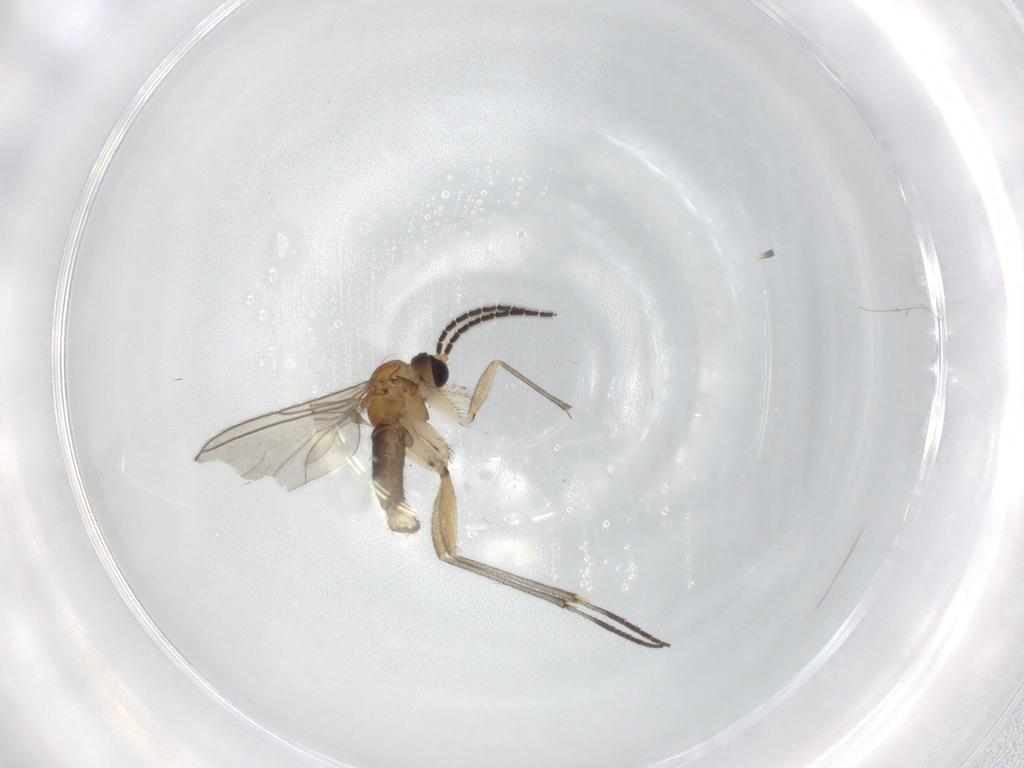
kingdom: Animalia
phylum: Arthropoda
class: Insecta
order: Diptera
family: Sciaridae
